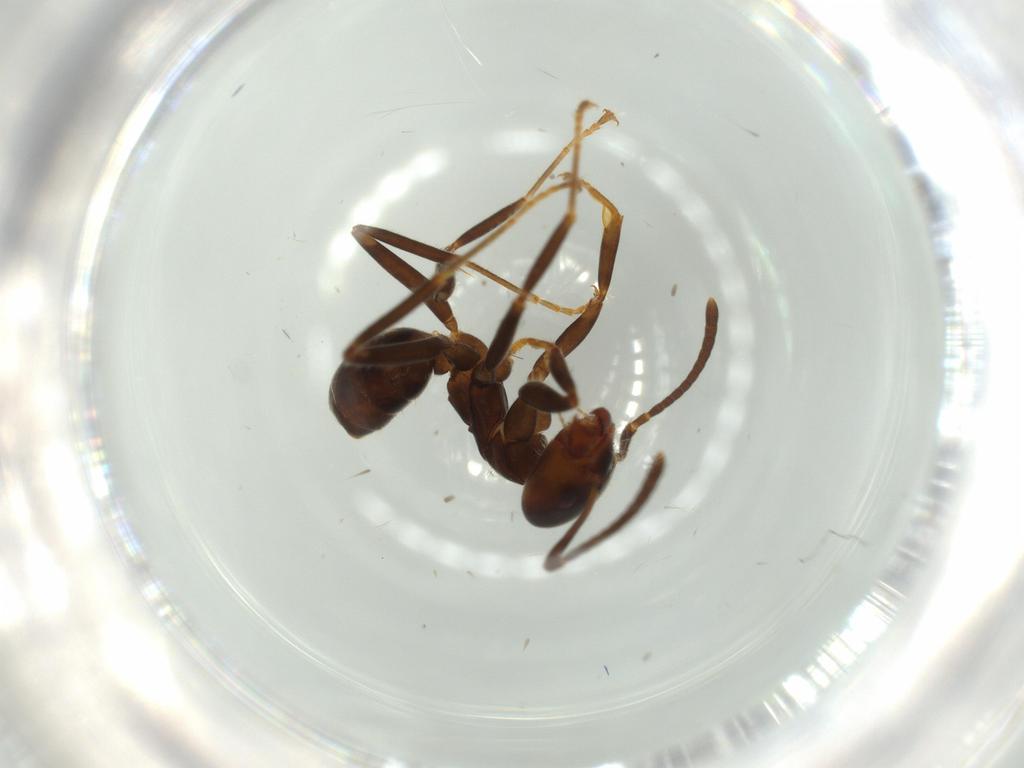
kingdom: Animalia
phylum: Arthropoda
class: Insecta
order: Hymenoptera
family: Formicidae
